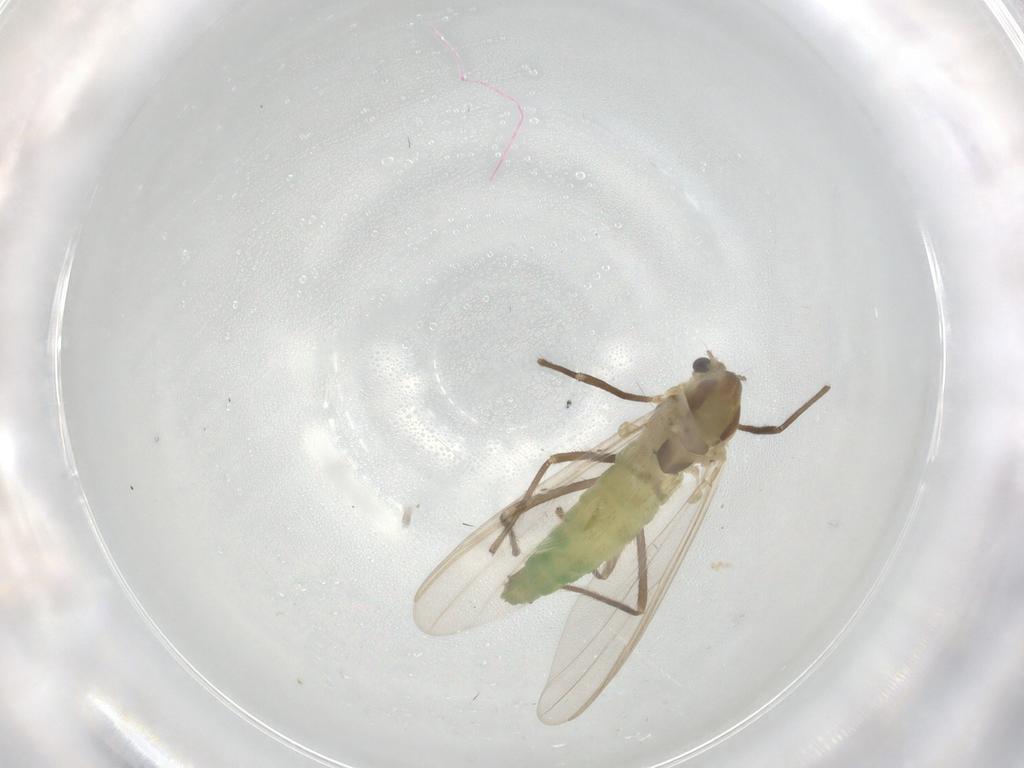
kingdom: Animalia
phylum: Arthropoda
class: Insecta
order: Diptera
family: Chironomidae
